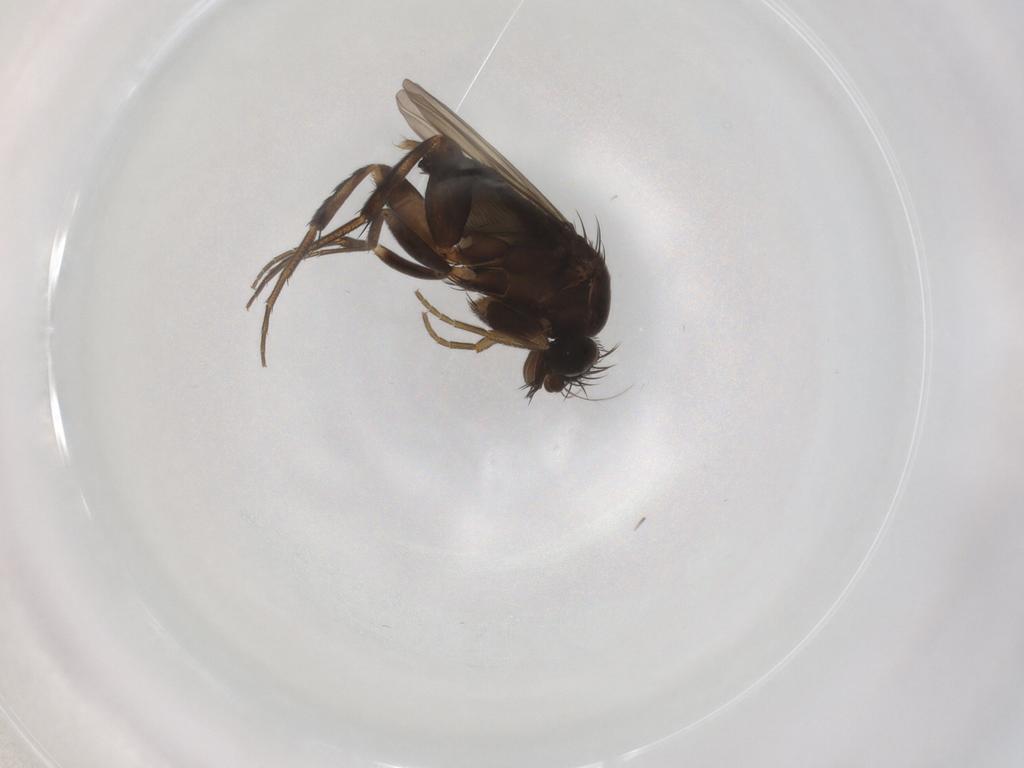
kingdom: Animalia
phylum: Arthropoda
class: Insecta
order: Diptera
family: Phoridae
